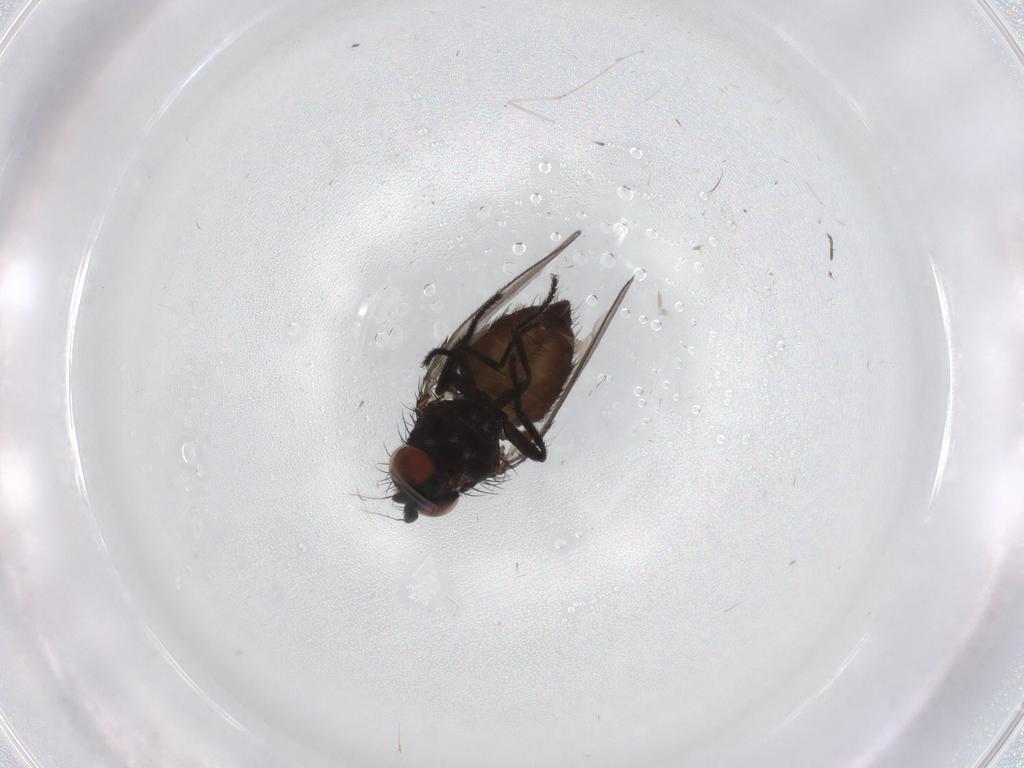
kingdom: Animalia
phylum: Arthropoda
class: Insecta
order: Diptera
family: Milichiidae
